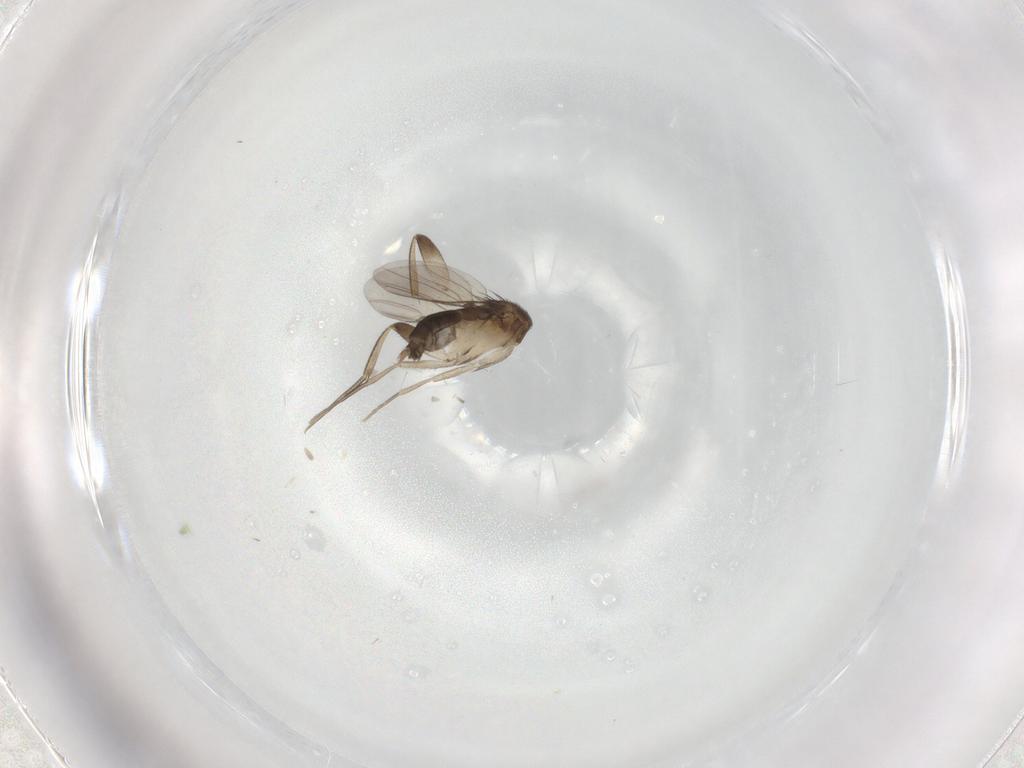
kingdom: Animalia
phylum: Arthropoda
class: Insecta
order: Diptera
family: Phoridae
